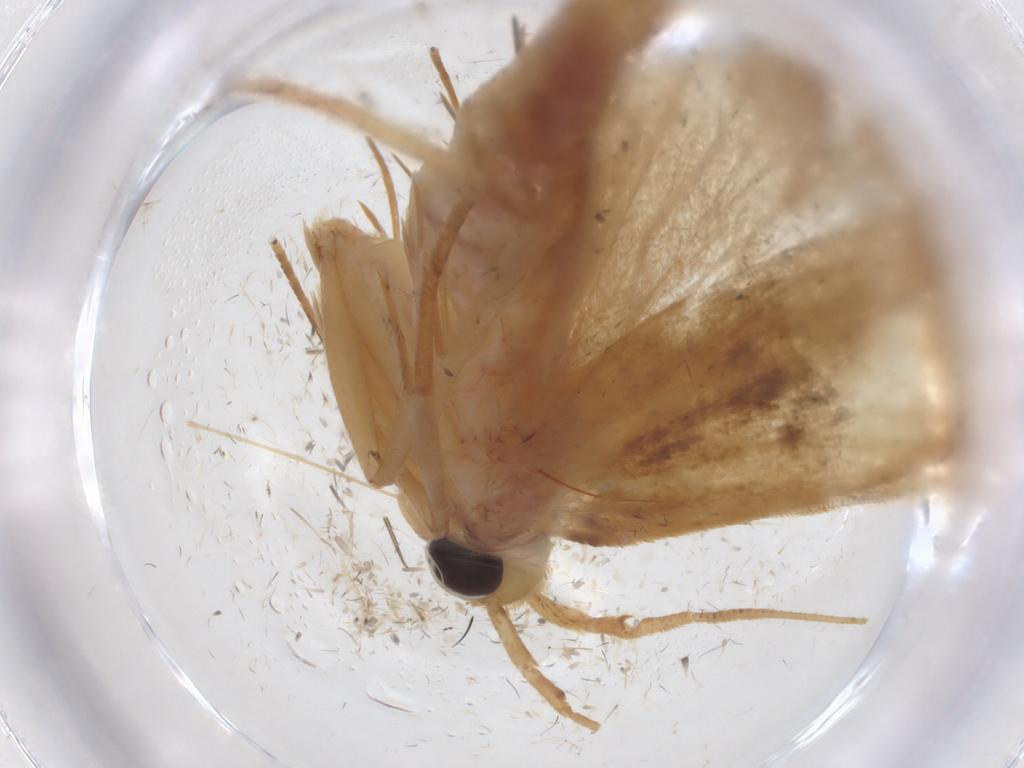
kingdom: Animalia
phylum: Arthropoda
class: Insecta
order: Lepidoptera
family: Autostichidae
